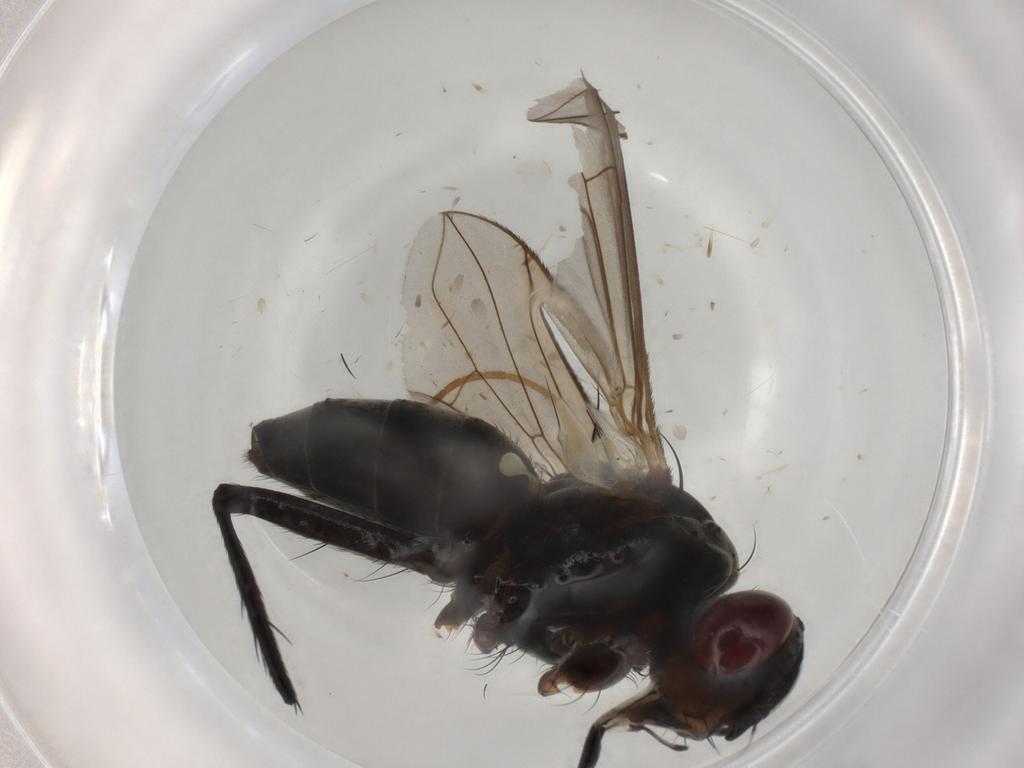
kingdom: Animalia
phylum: Arthropoda
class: Insecta
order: Diptera
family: Tachinidae
